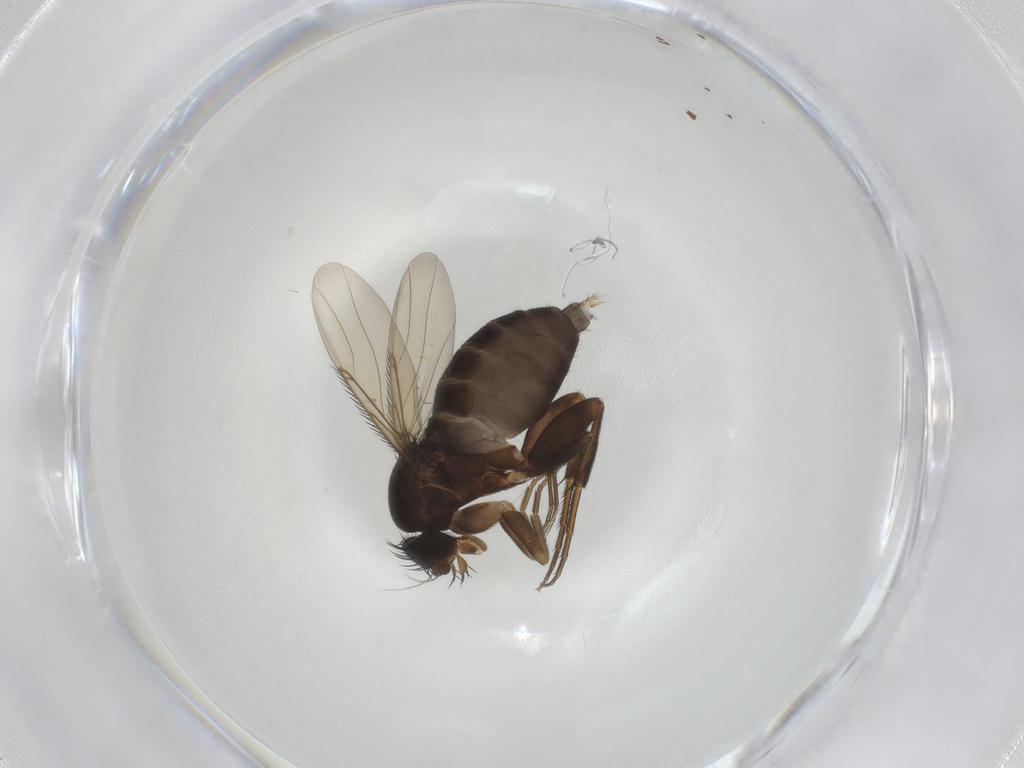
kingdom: Animalia
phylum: Arthropoda
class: Insecta
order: Diptera
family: Phoridae
